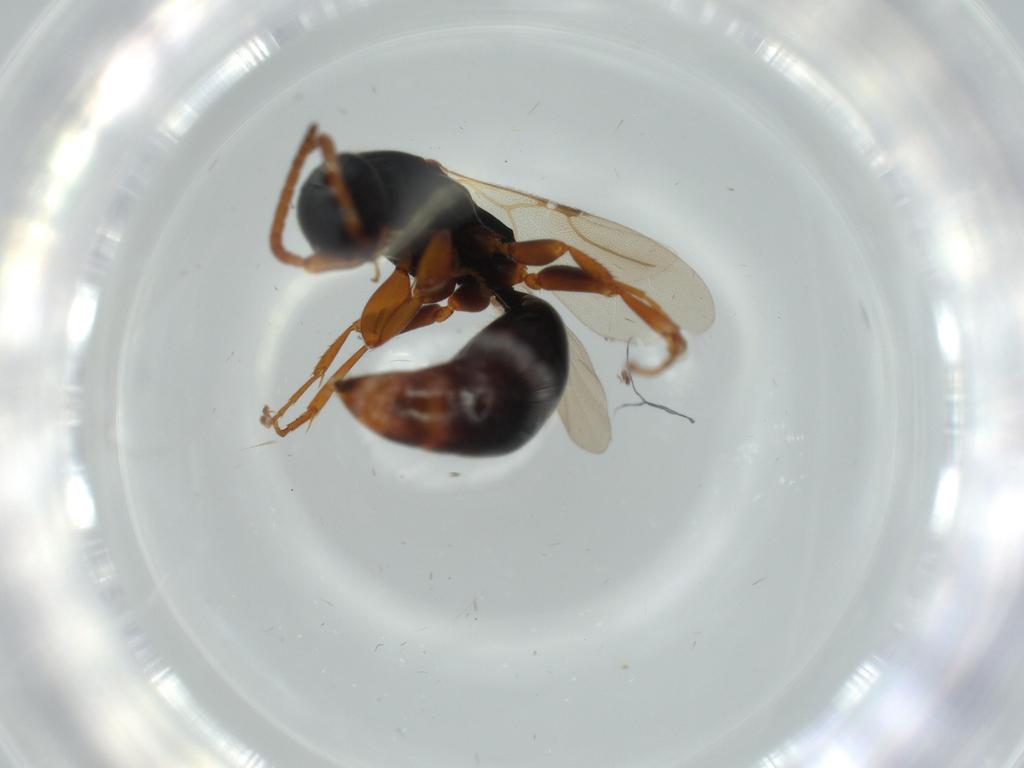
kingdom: Animalia
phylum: Arthropoda
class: Insecta
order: Hymenoptera
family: Bethylidae
